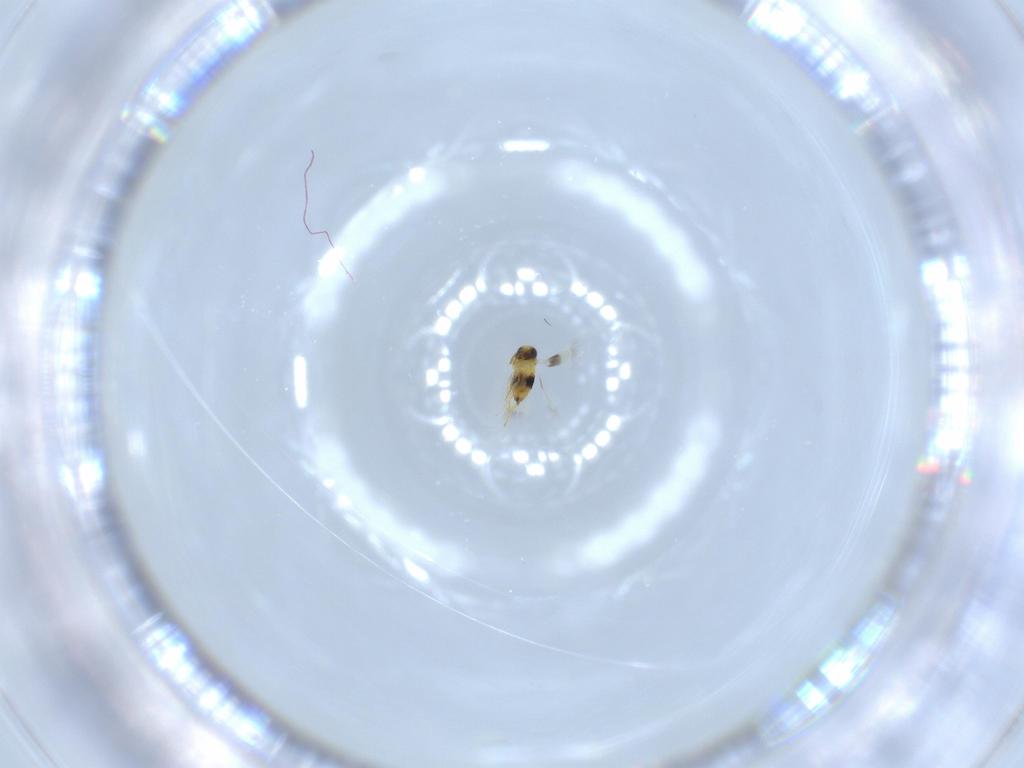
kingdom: Animalia
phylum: Arthropoda
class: Insecta
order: Hymenoptera
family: Ichneumonidae
